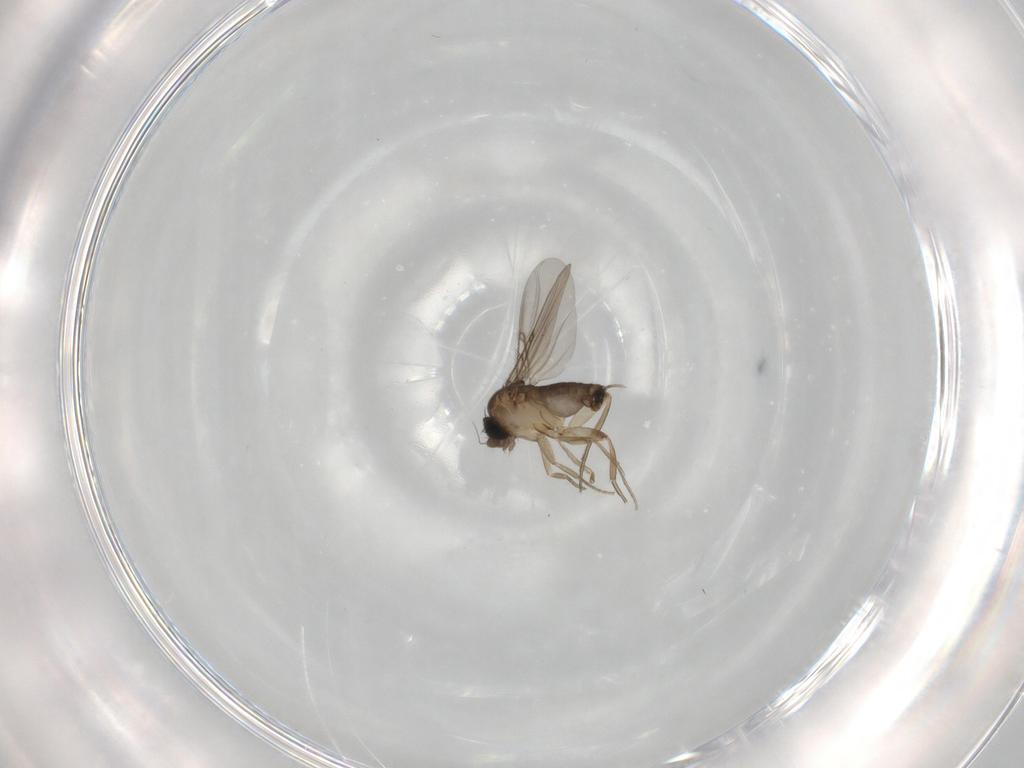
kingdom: Animalia
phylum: Arthropoda
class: Insecta
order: Diptera
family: Phoridae
